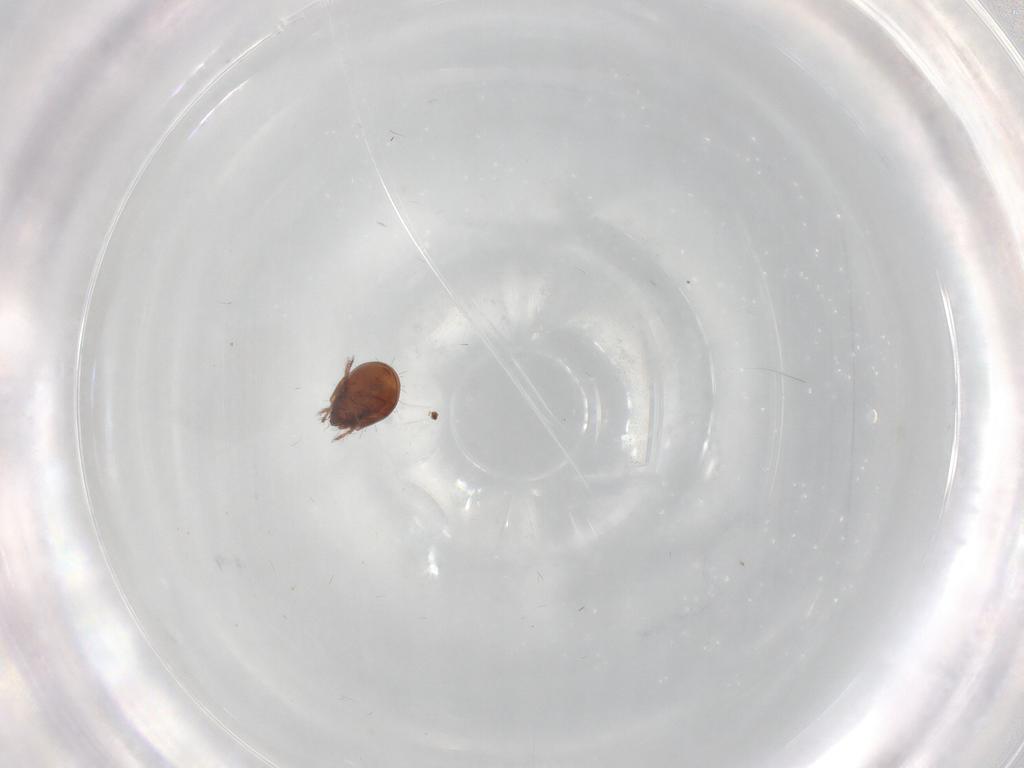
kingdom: Animalia
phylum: Arthropoda
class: Arachnida
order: Sarcoptiformes
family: Humerobatidae
